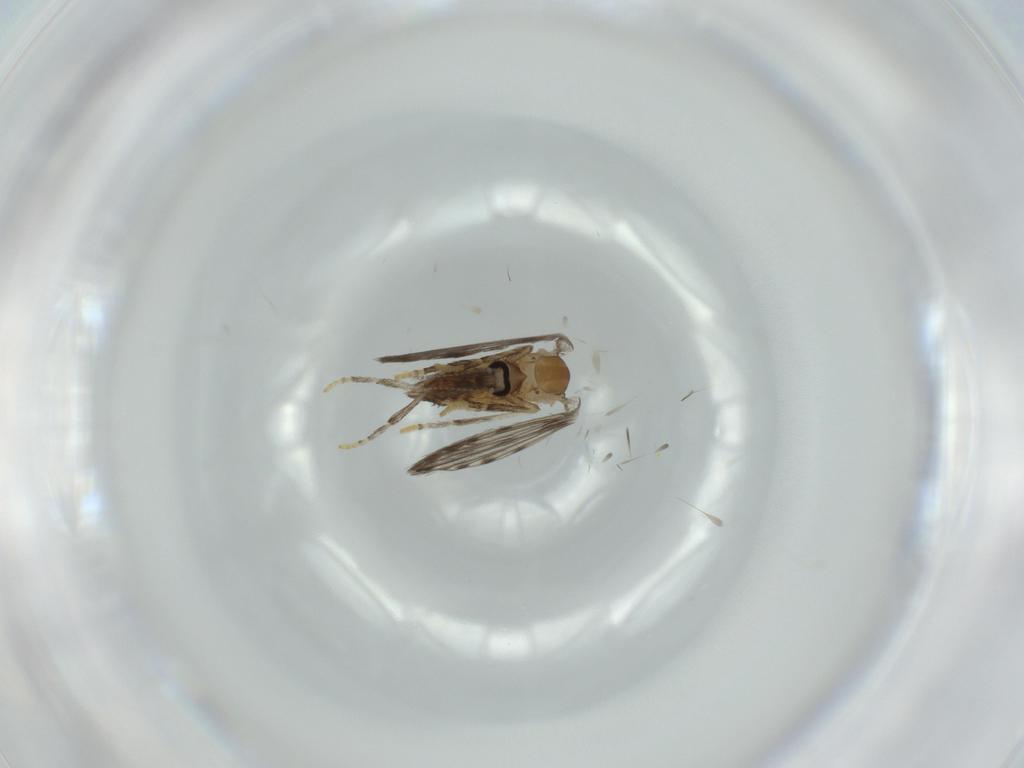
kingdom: Animalia
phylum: Arthropoda
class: Insecta
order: Diptera
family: Psychodidae
